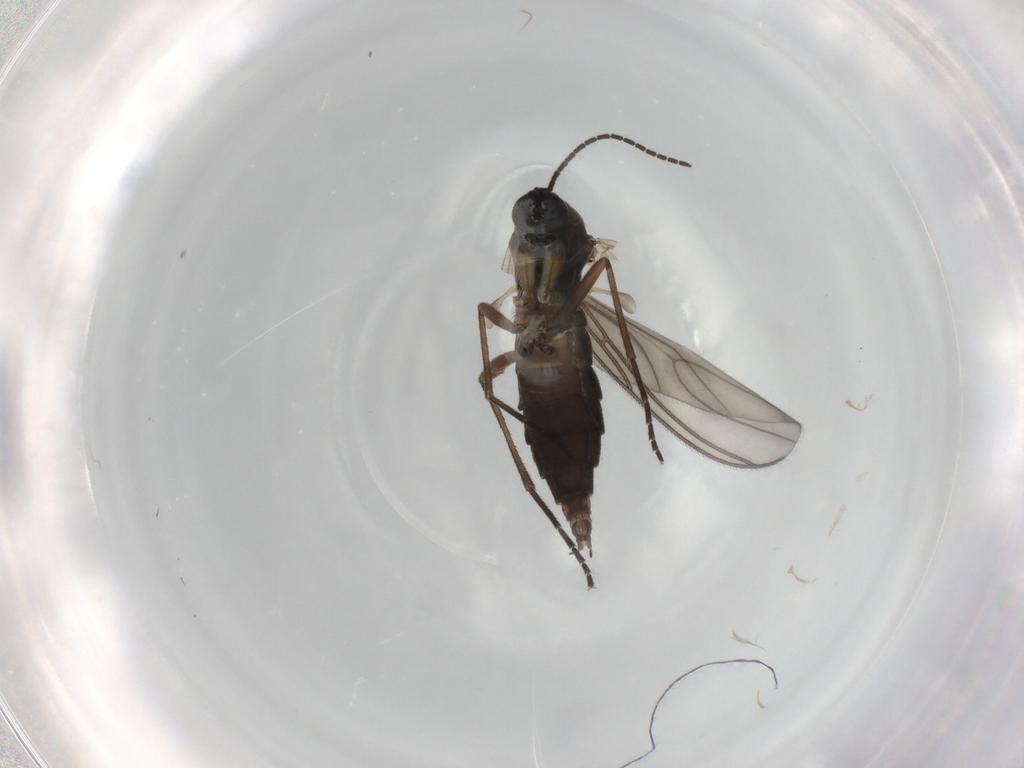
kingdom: Animalia
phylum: Arthropoda
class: Insecta
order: Diptera
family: Sciaridae
